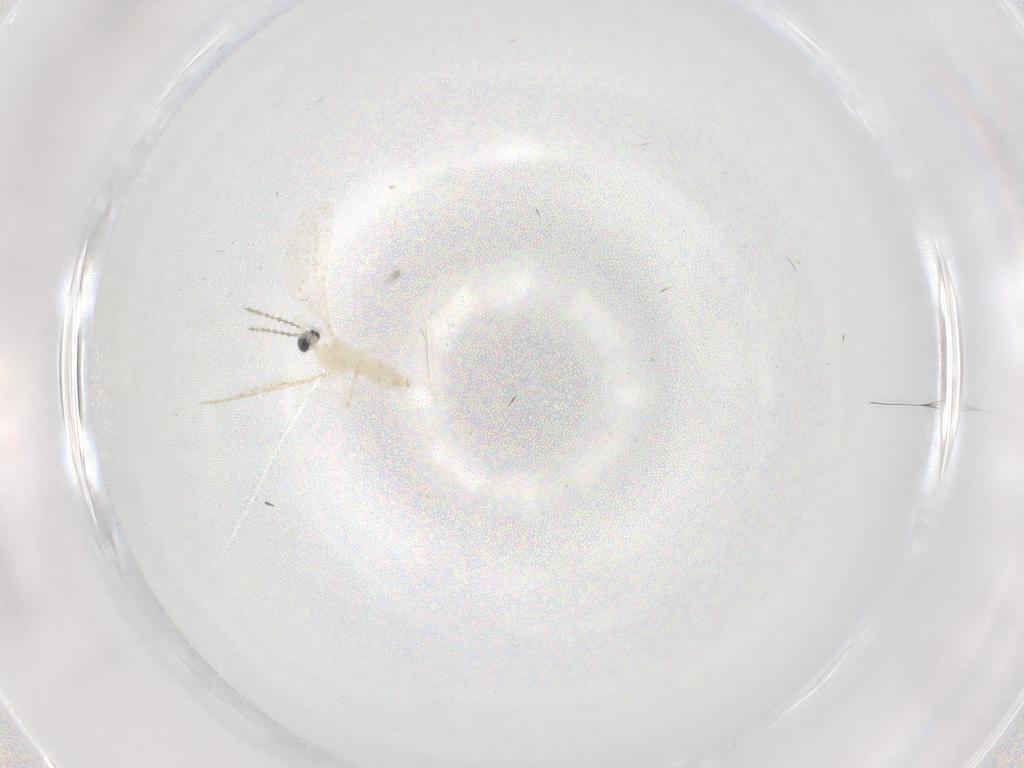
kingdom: Animalia
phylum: Arthropoda
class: Insecta
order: Diptera
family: Cecidomyiidae
